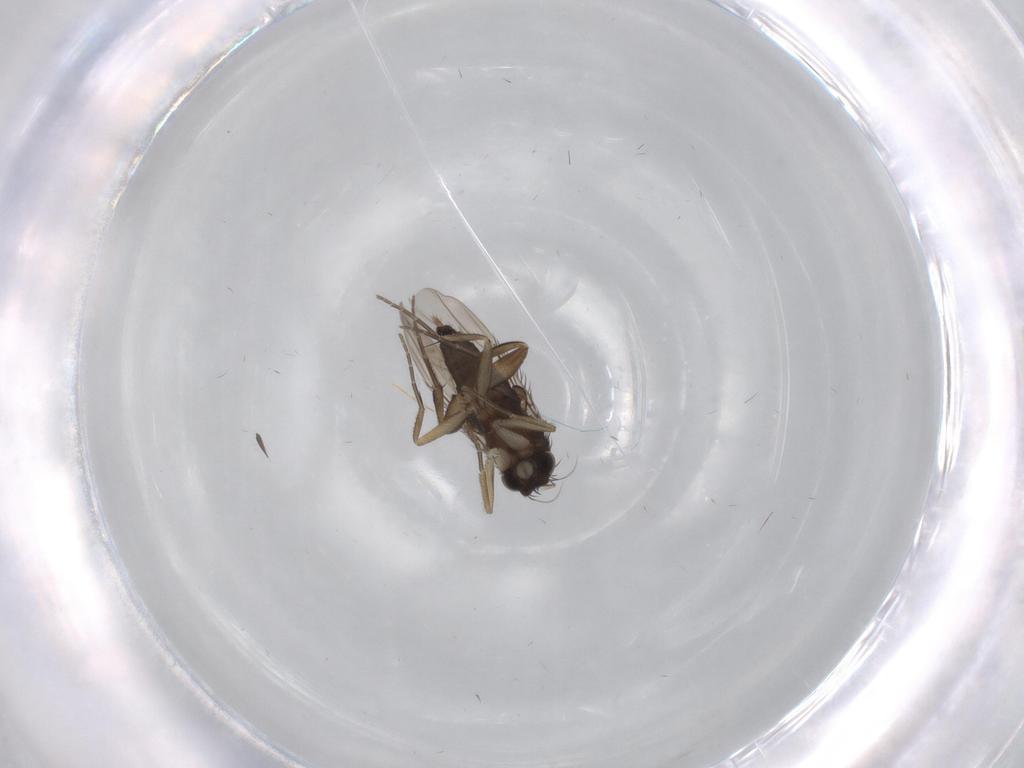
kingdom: Animalia
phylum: Arthropoda
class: Insecta
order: Diptera
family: Phoridae
